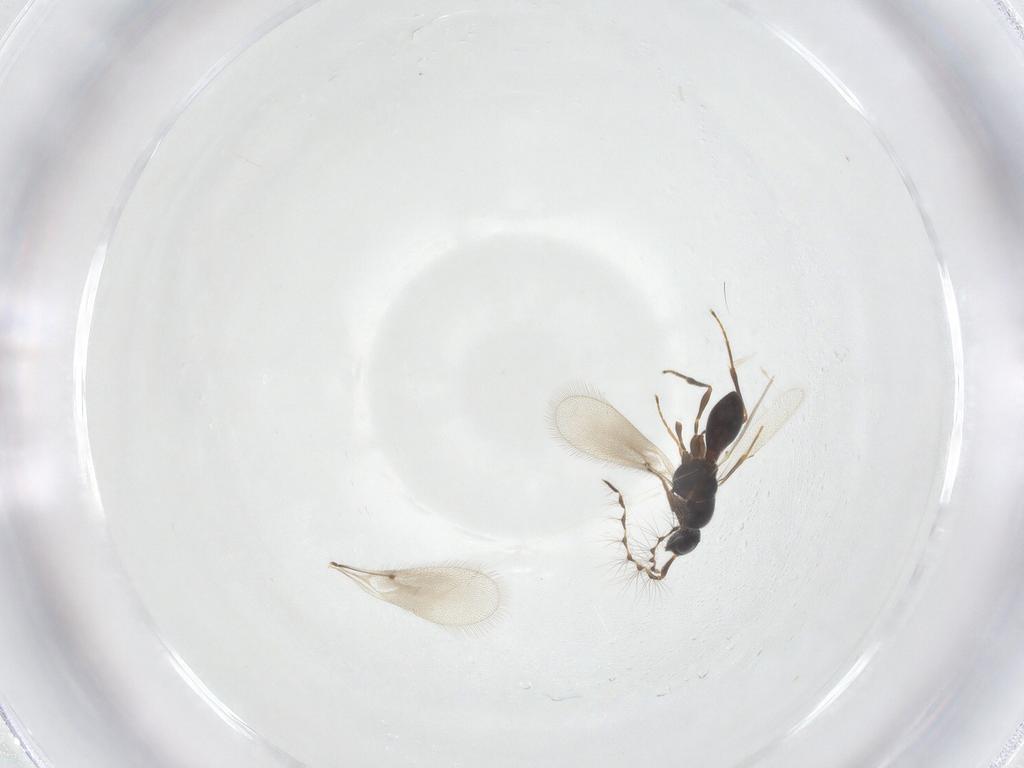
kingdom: Animalia
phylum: Arthropoda
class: Insecta
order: Hymenoptera
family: Platygastridae
